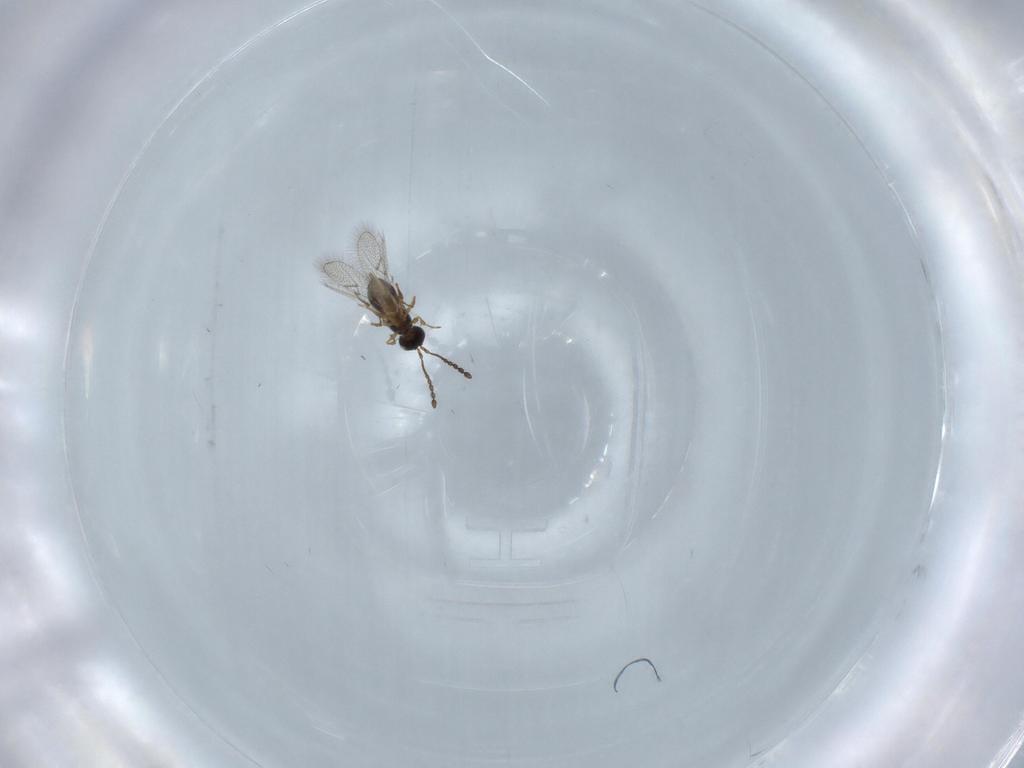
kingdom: Animalia
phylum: Arthropoda
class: Insecta
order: Hymenoptera
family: Figitidae
